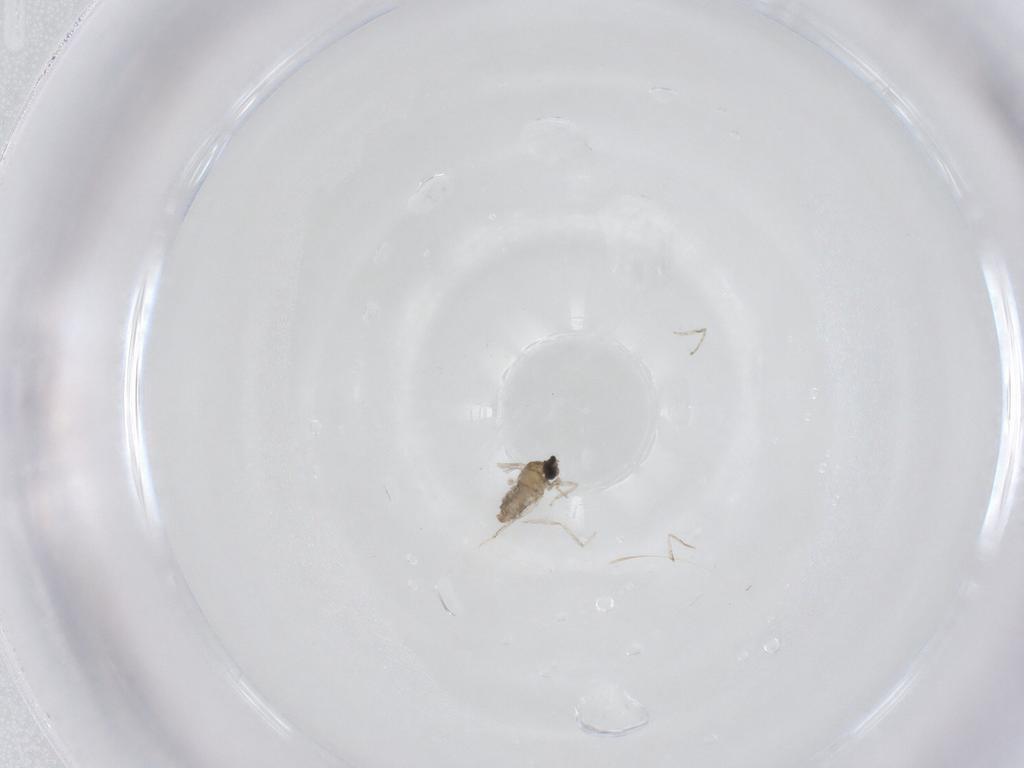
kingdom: Animalia
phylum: Arthropoda
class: Insecta
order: Diptera
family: Cecidomyiidae
